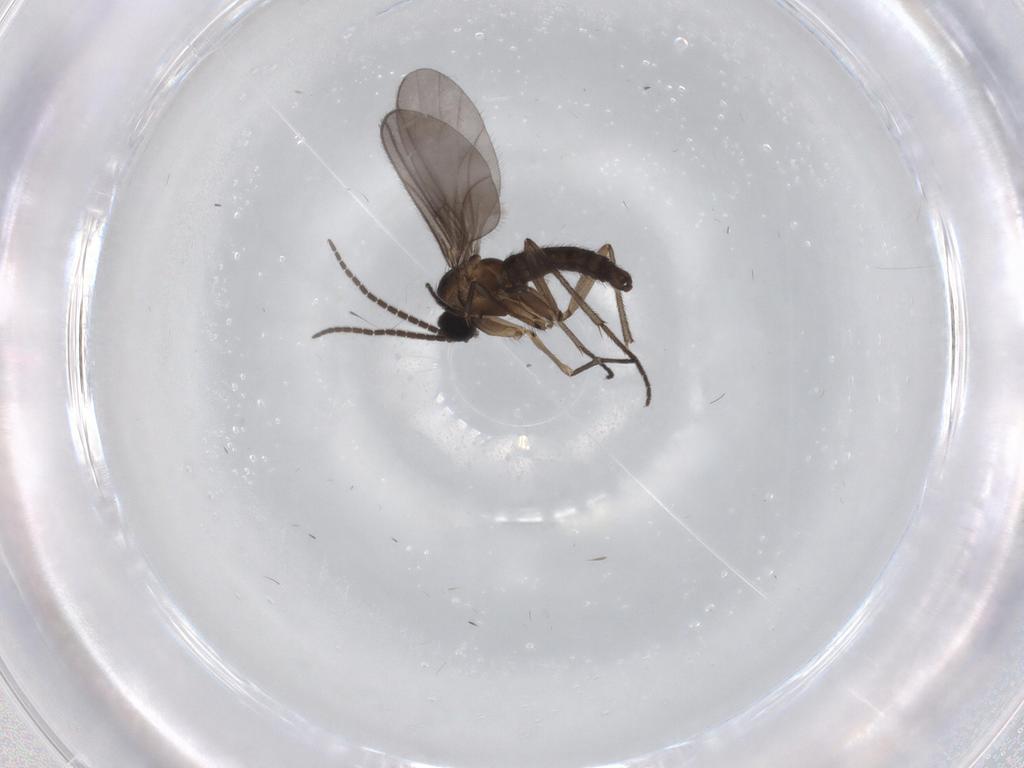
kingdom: Animalia
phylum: Arthropoda
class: Insecta
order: Diptera
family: Sciaridae
